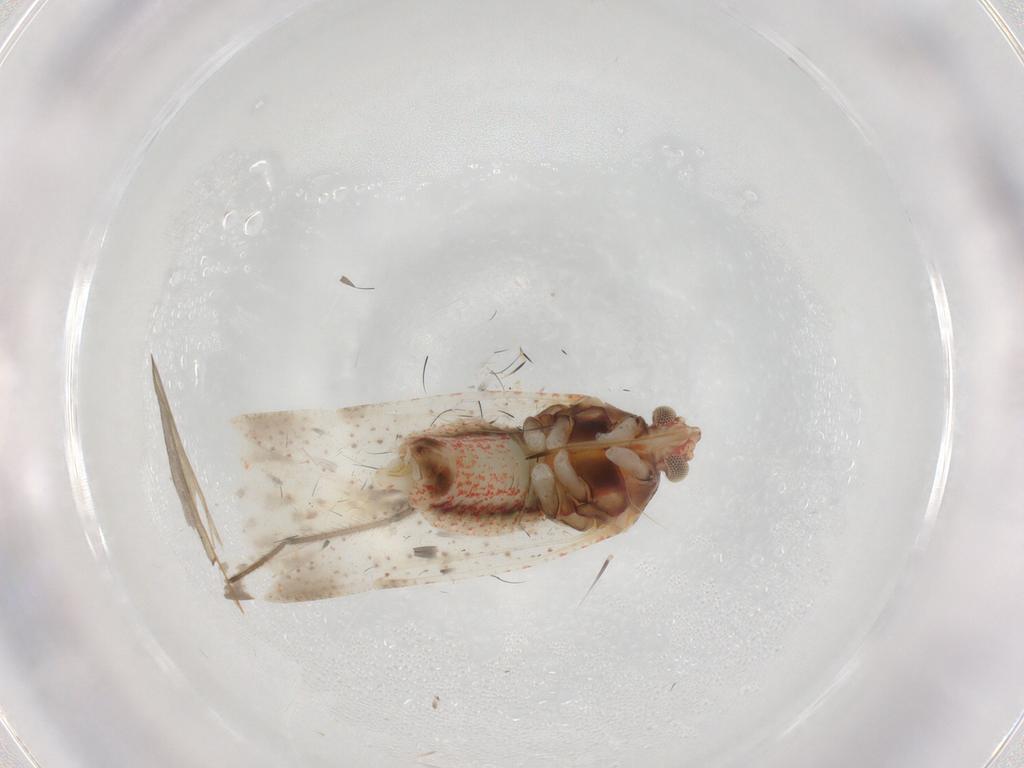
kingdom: Animalia
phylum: Arthropoda
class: Insecta
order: Hemiptera
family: Miridae
